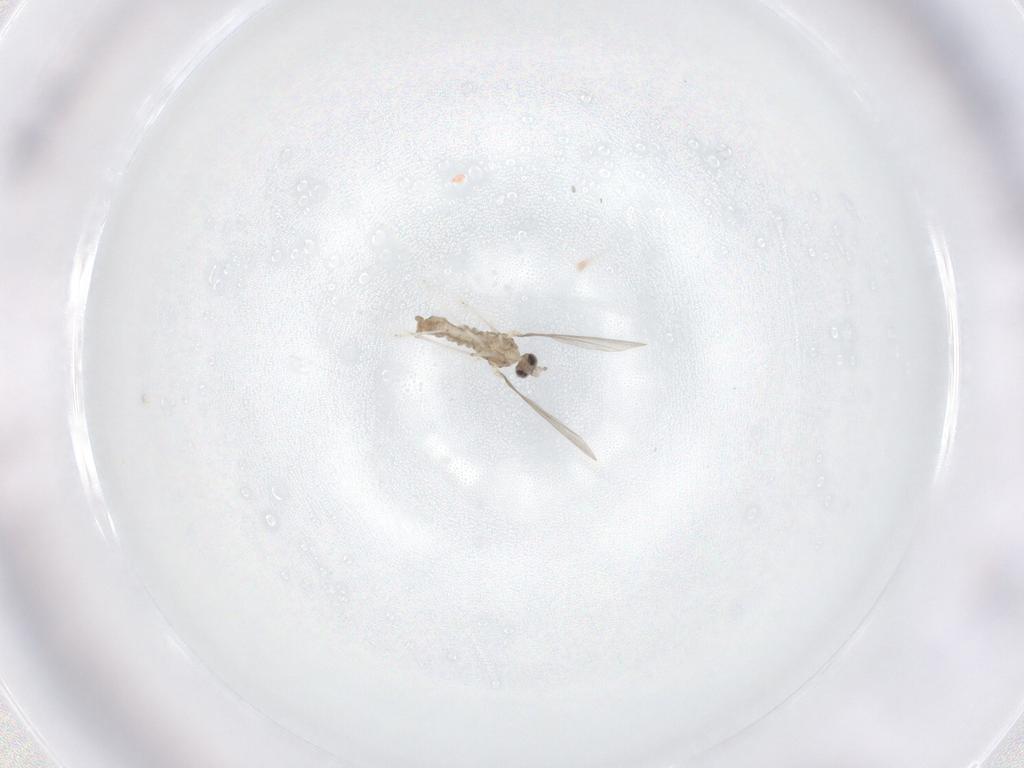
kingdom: Animalia
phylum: Arthropoda
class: Insecta
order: Diptera
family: Cecidomyiidae
